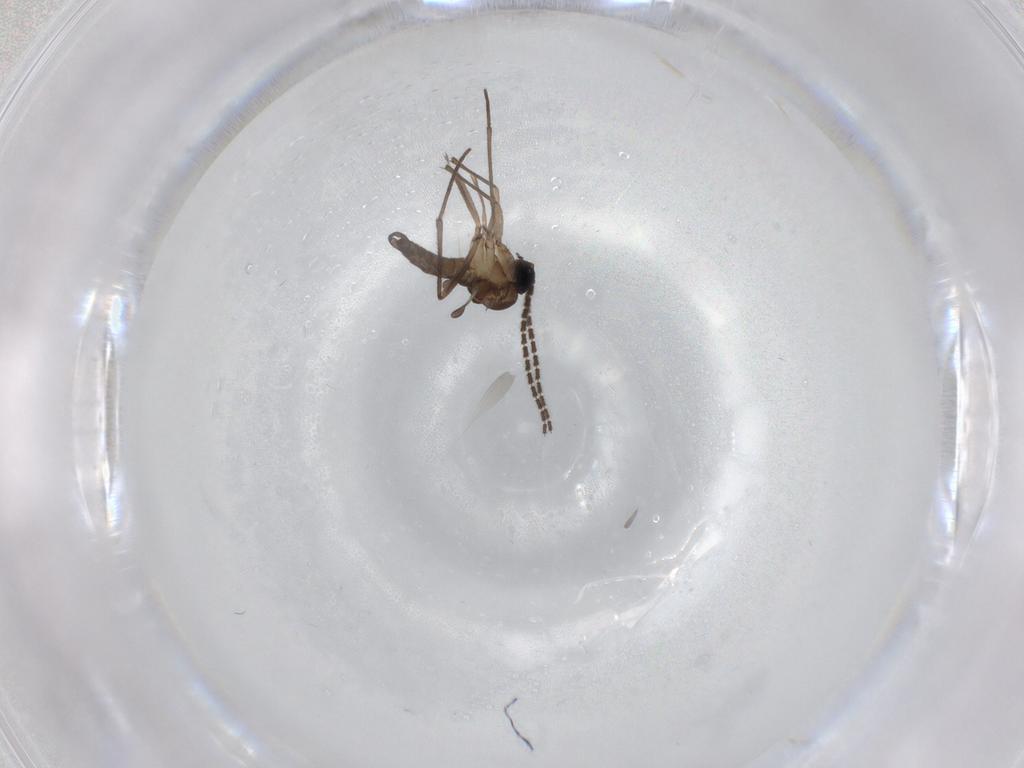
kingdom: Animalia
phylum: Arthropoda
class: Insecta
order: Diptera
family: Sciaridae
